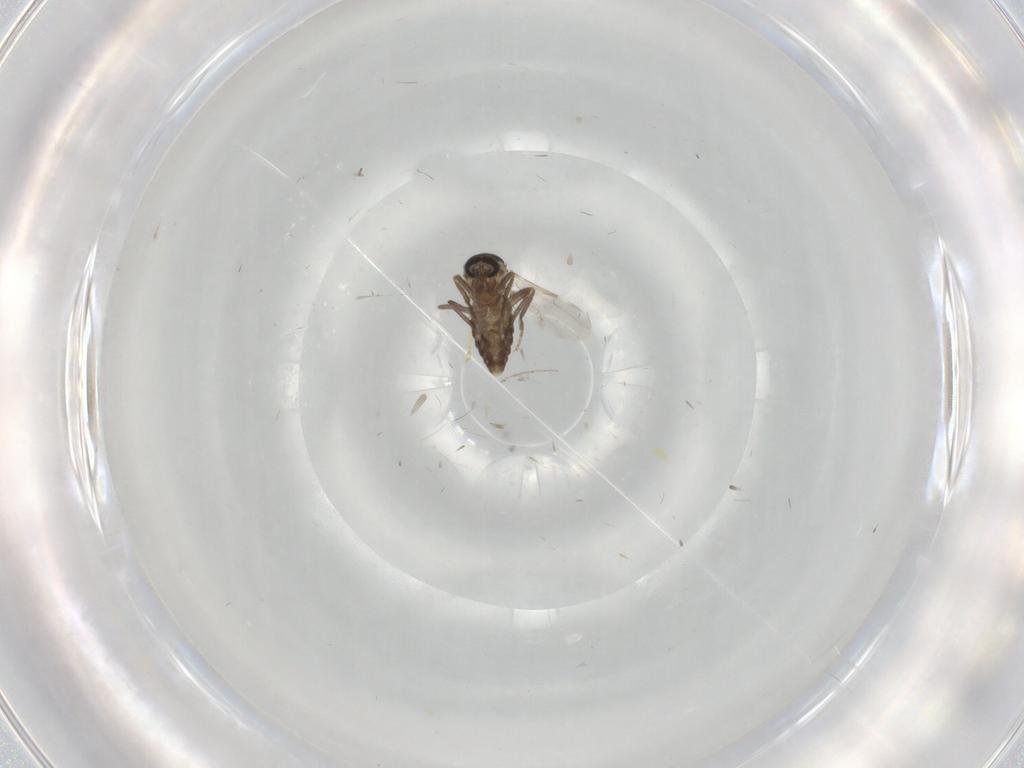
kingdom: Animalia
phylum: Arthropoda
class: Insecta
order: Diptera
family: Ceratopogonidae
